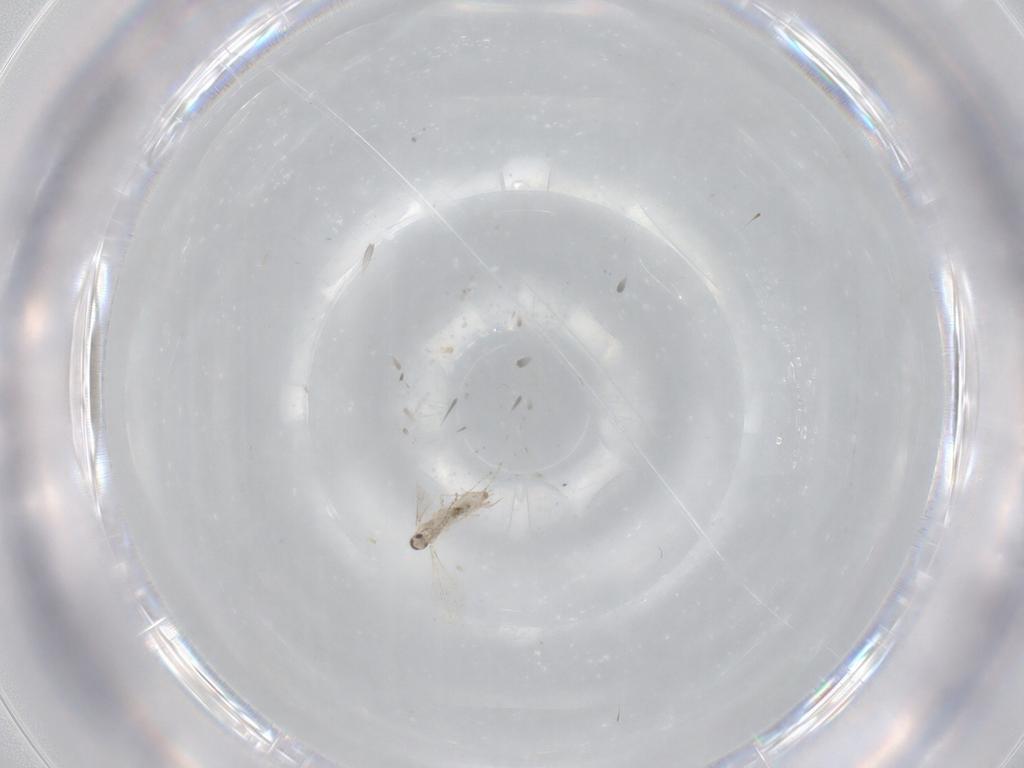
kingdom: Animalia
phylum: Arthropoda
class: Insecta
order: Diptera
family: Cecidomyiidae
